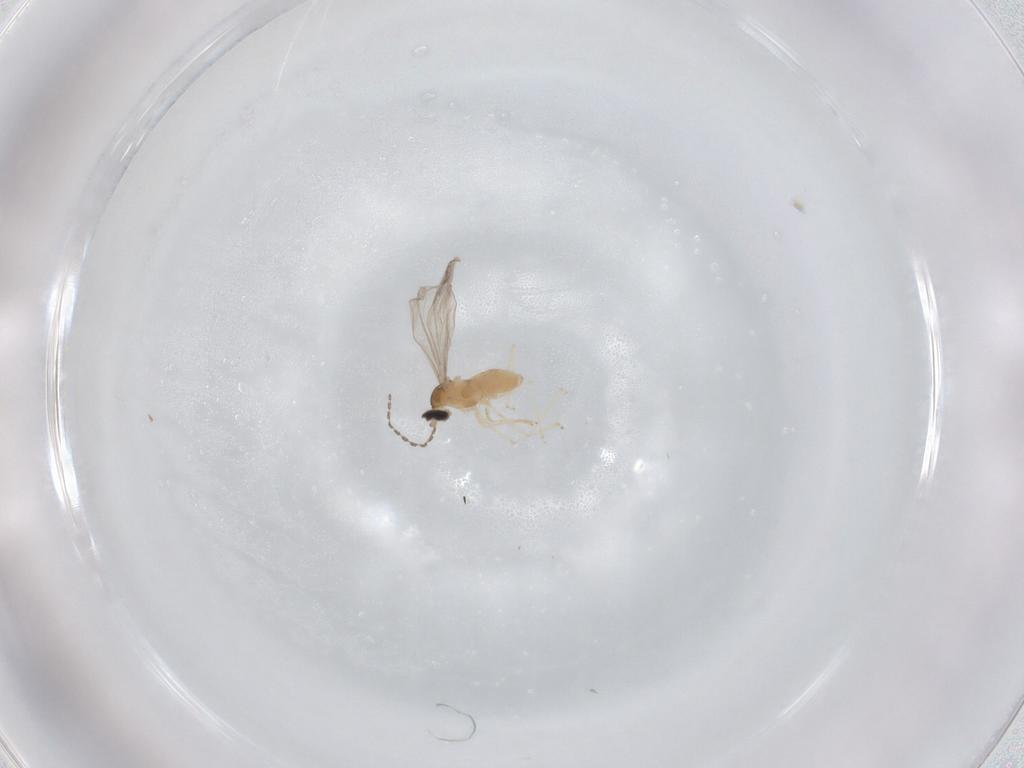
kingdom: Animalia
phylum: Arthropoda
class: Insecta
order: Diptera
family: Cecidomyiidae
